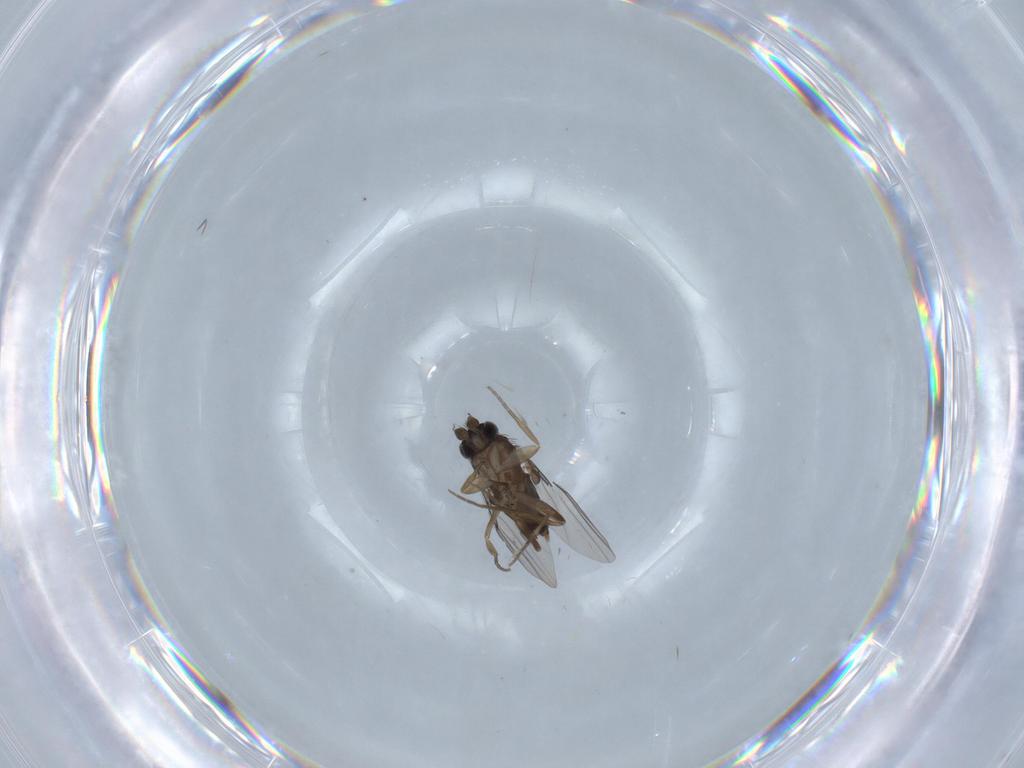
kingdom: Animalia
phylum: Arthropoda
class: Insecta
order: Diptera
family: Phoridae
